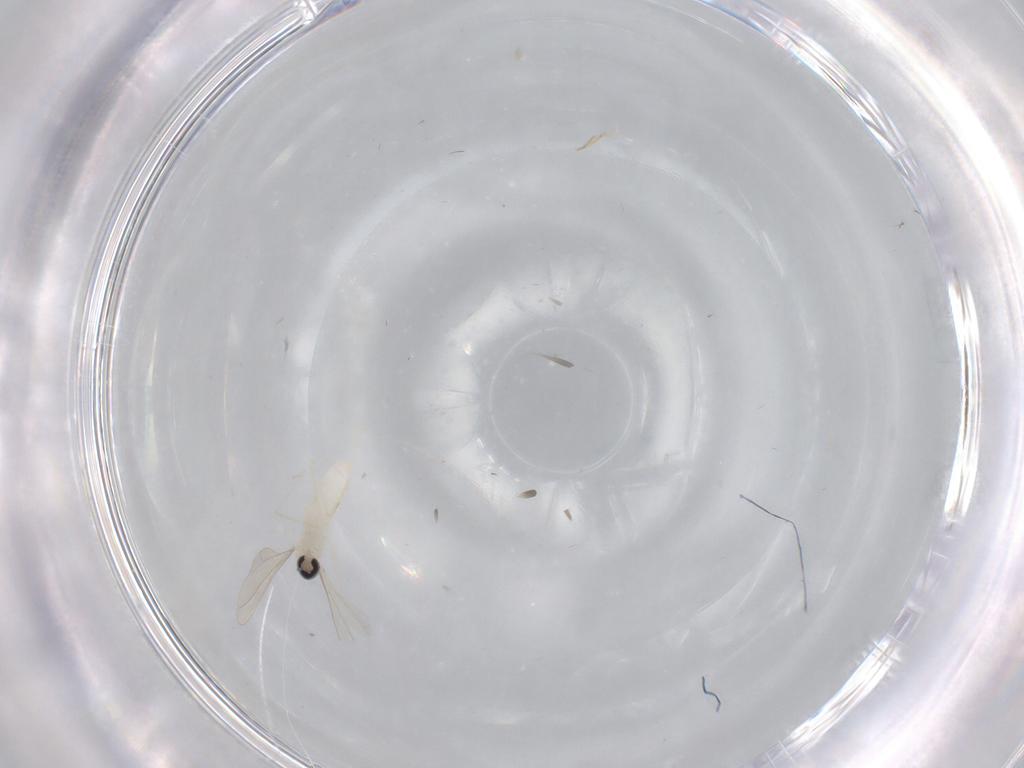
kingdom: Animalia
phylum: Arthropoda
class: Insecta
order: Diptera
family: Cecidomyiidae
